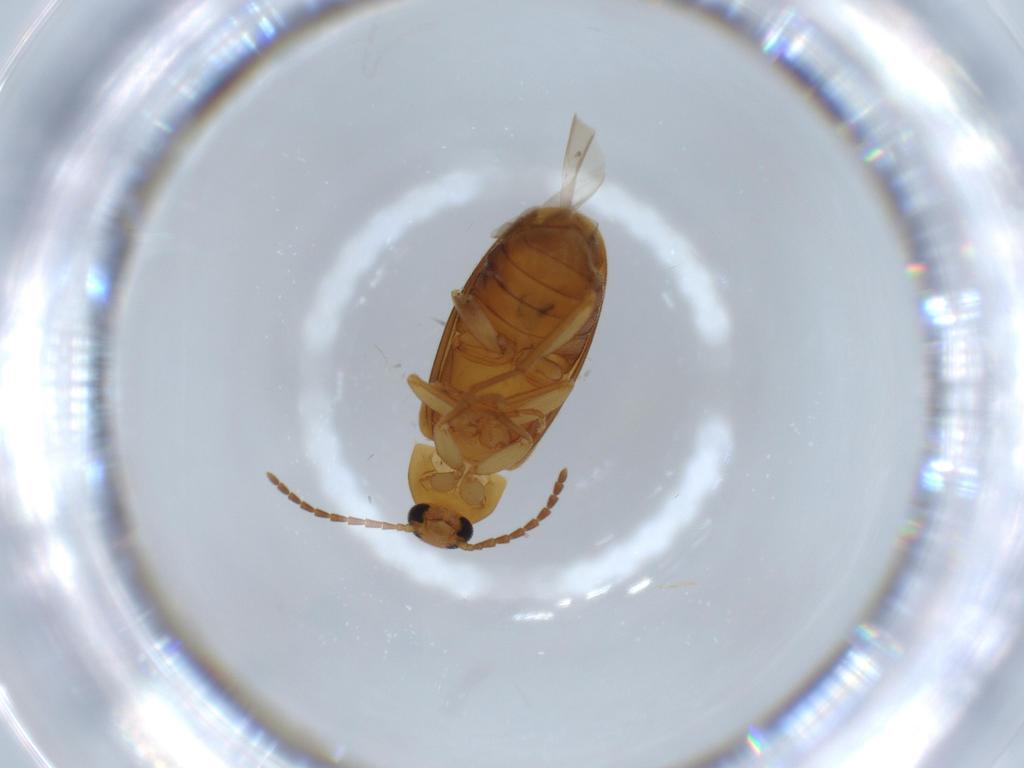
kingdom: Animalia
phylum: Arthropoda
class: Insecta
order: Coleoptera
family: Scraptiidae
